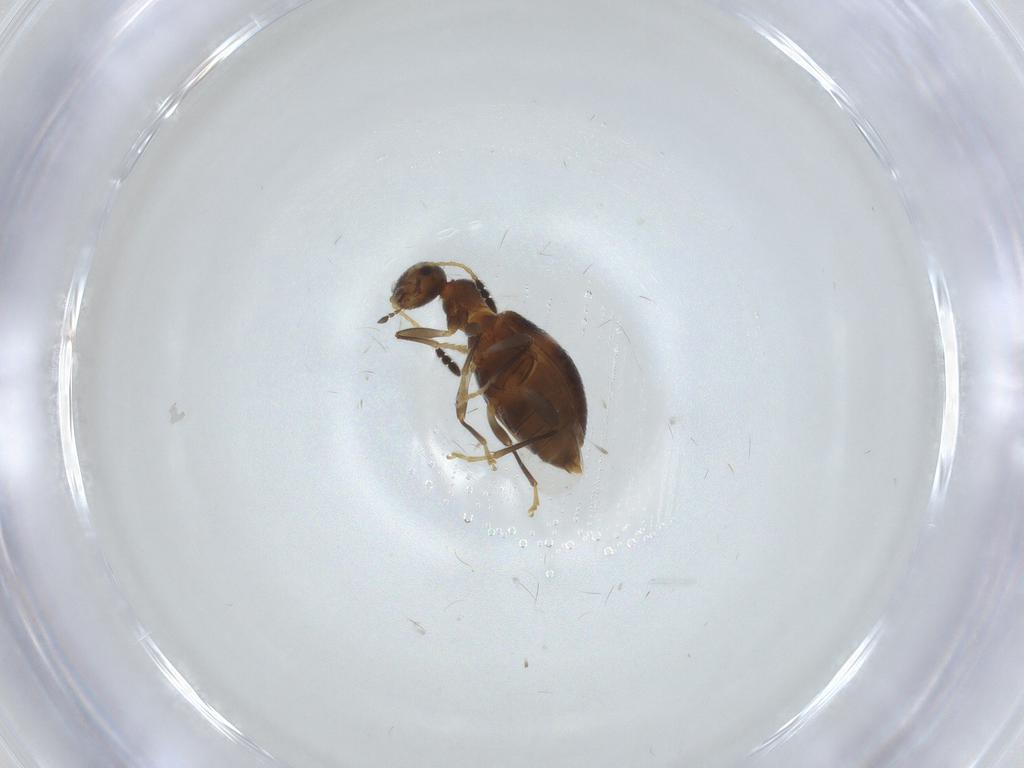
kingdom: Animalia
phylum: Arthropoda
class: Insecta
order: Coleoptera
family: Anthicidae
